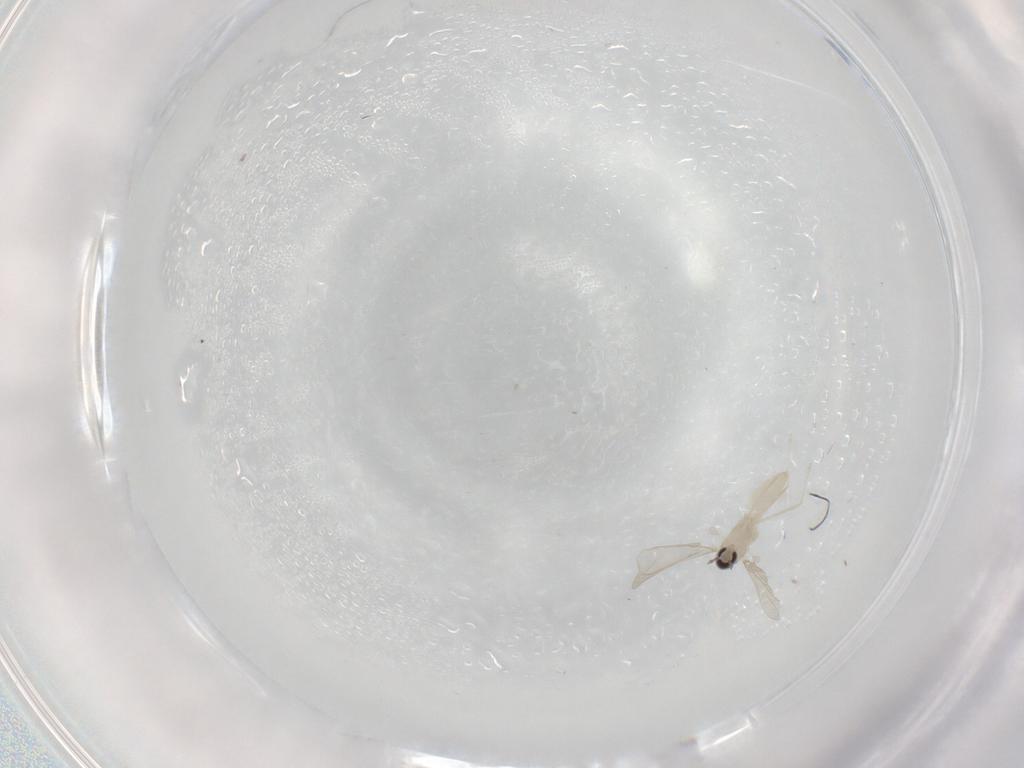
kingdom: Animalia
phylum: Arthropoda
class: Insecta
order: Diptera
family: Cecidomyiidae
